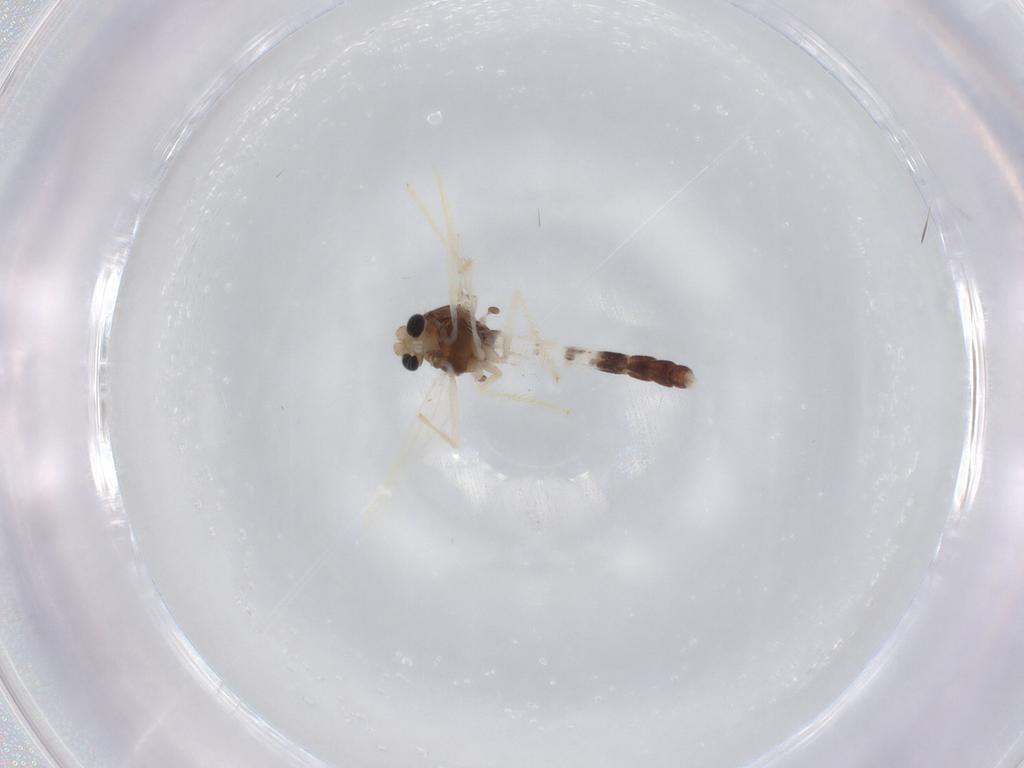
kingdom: Animalia
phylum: Arthropoda
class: Insecta
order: Diptera
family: Chironomidae
